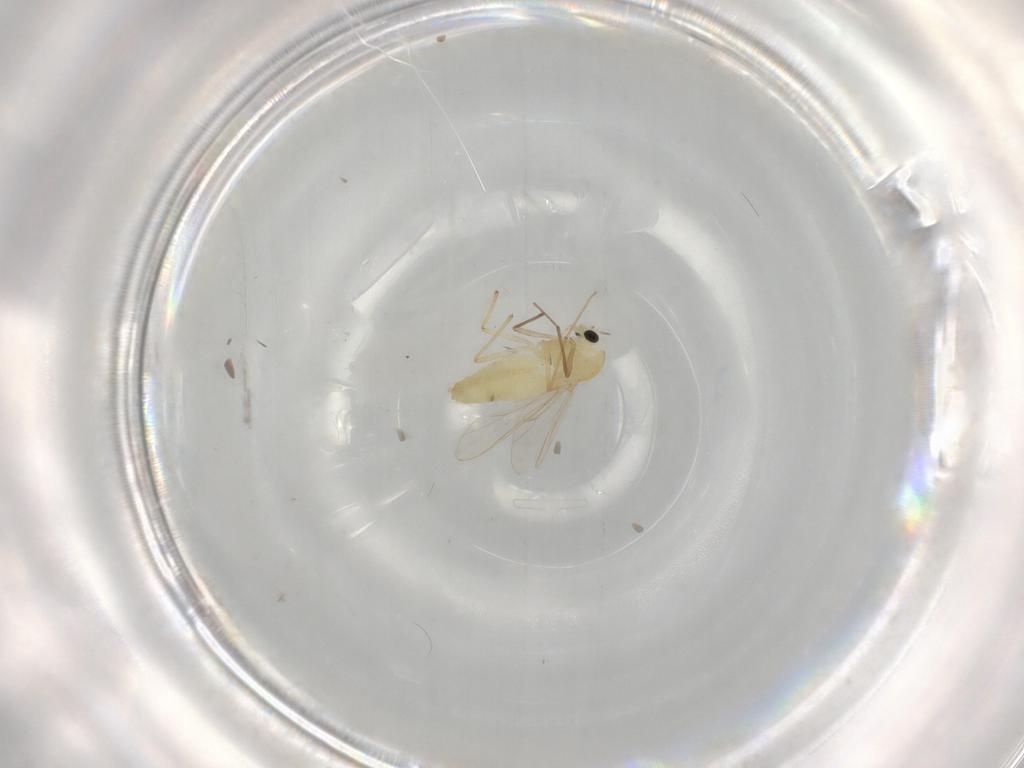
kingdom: Animalia
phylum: Arthropoda
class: Insecta
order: Diptera
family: Chironomidae
